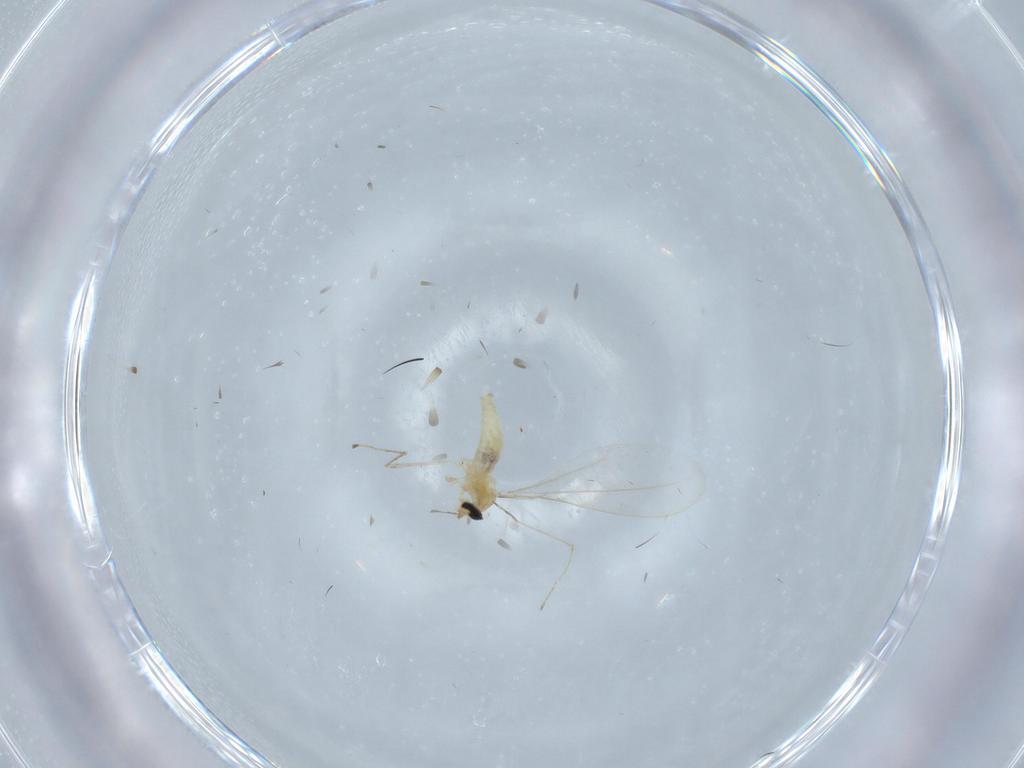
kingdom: Animalia
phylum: Arthropoda
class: Insecta
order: Diptera
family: Cecidomyiidae
